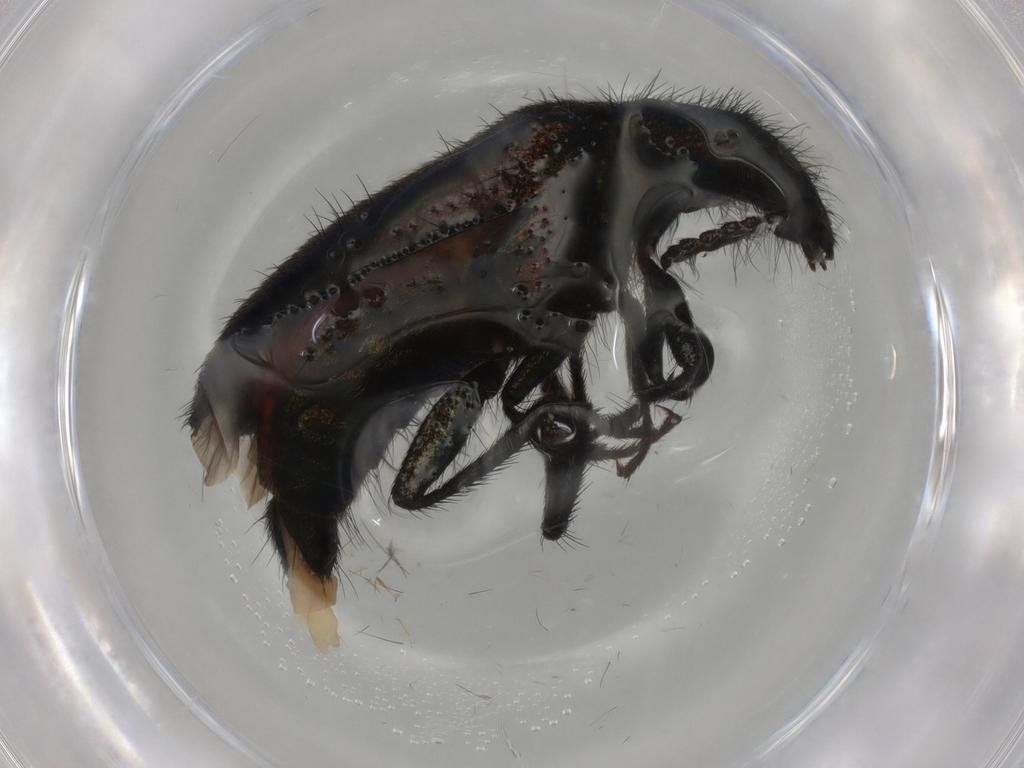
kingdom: Animalia
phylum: Arthropoda
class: Insecta
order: Coleoptera
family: Melyridae
